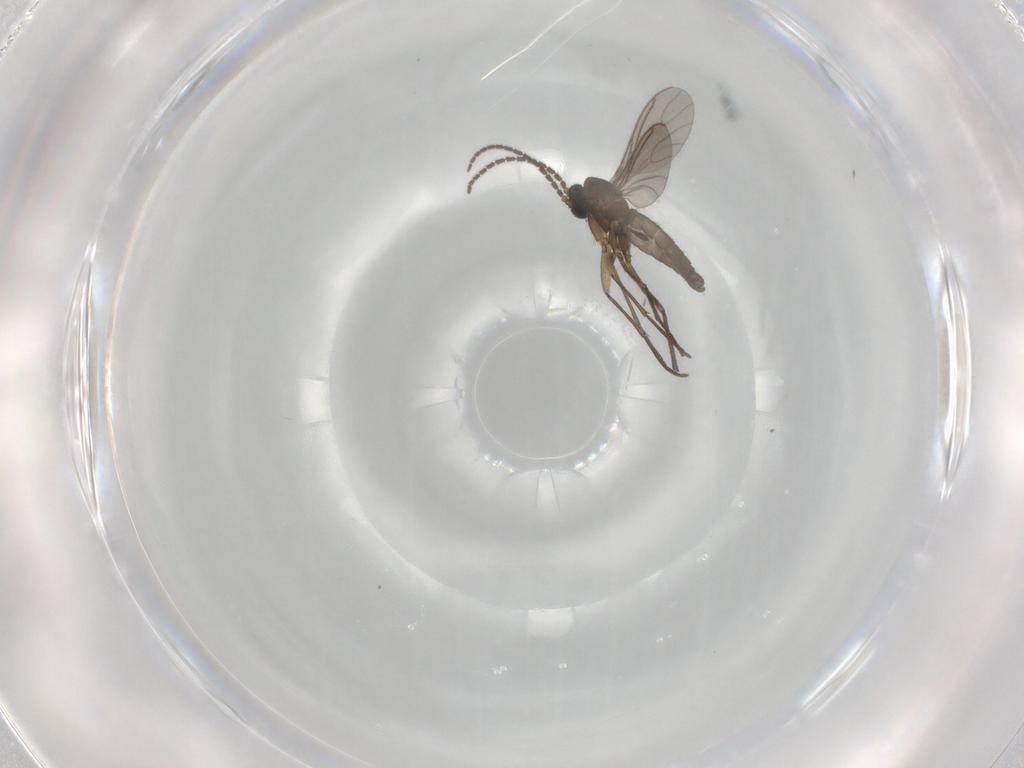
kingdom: Animalia
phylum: Arthropoda
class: Insecta
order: Diptera
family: Sciaridae
